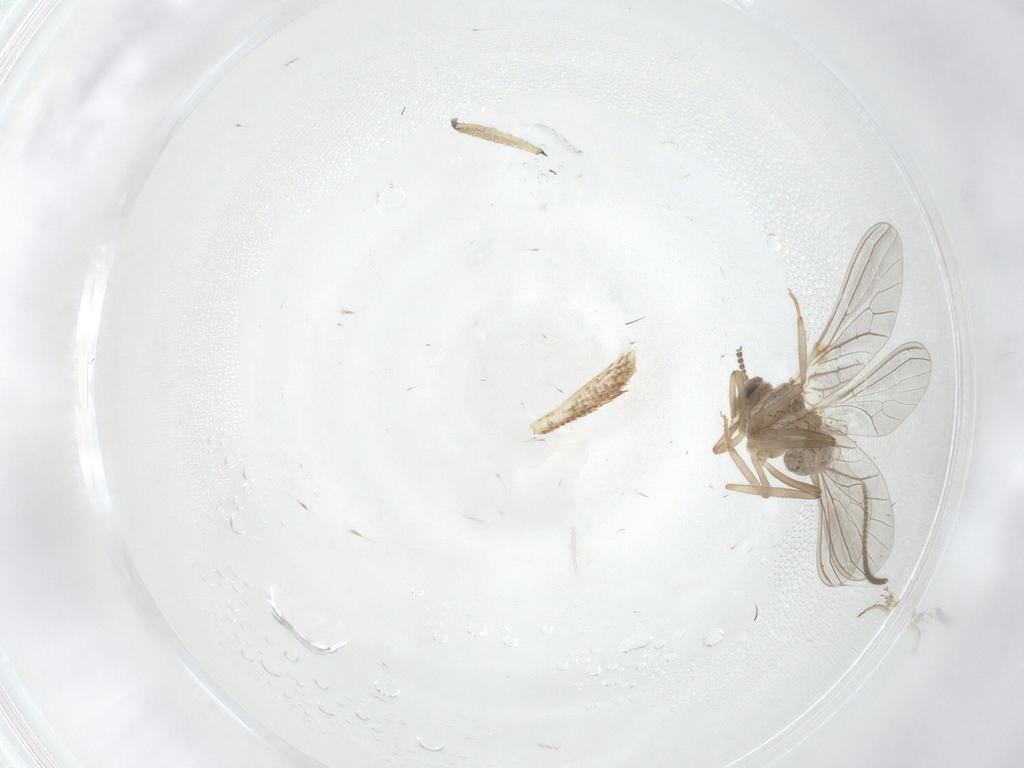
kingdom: Animalia
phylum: Arthropoda
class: Insecta
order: Neuroptera
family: Coniopterygidae
